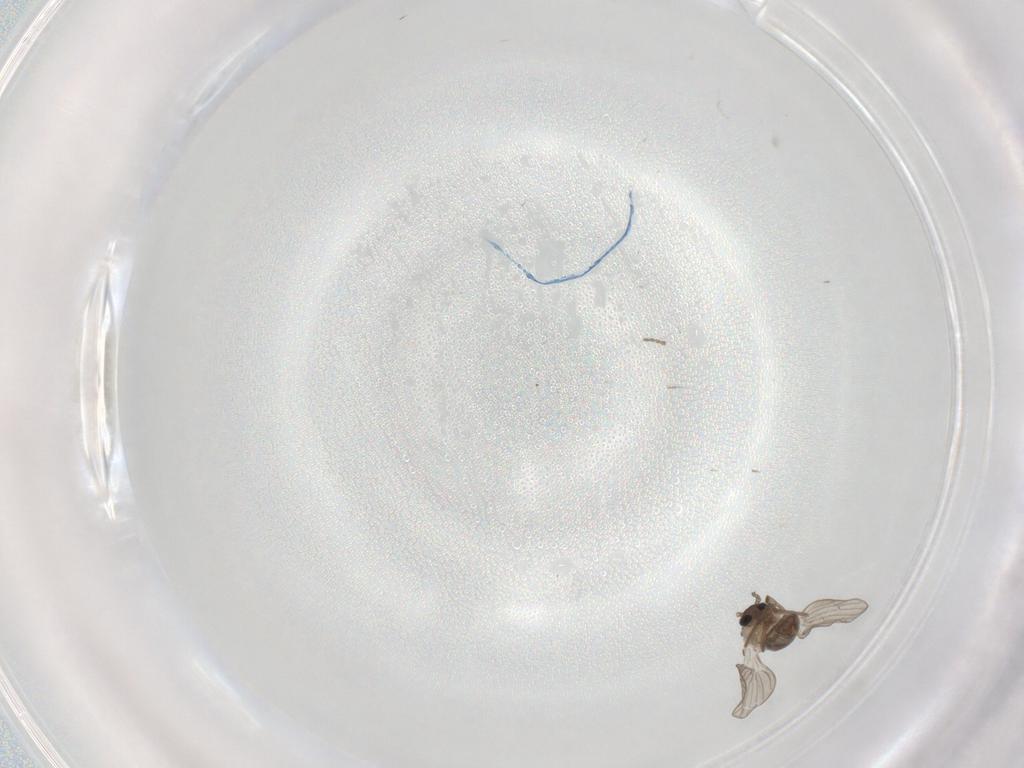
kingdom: Animalia
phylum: Arthropoda
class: Insecta
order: Diptera
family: Psychodidae
